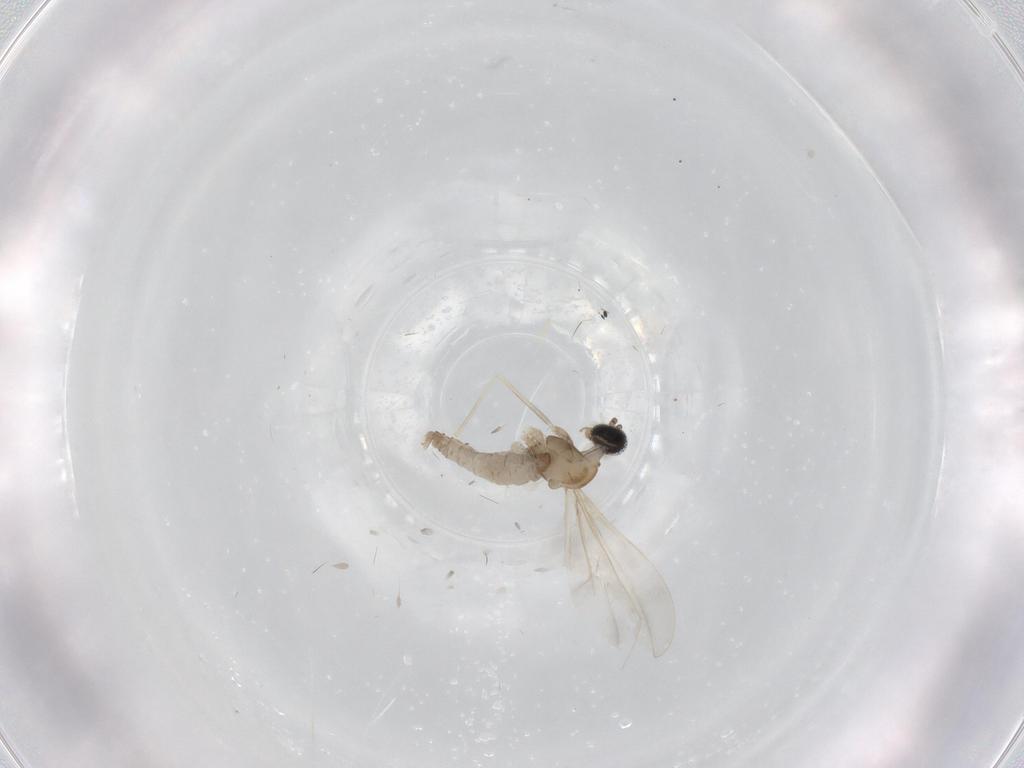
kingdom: Animalia
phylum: Arthropoda
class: Insecta
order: Diptera
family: Cecidomyiidae
